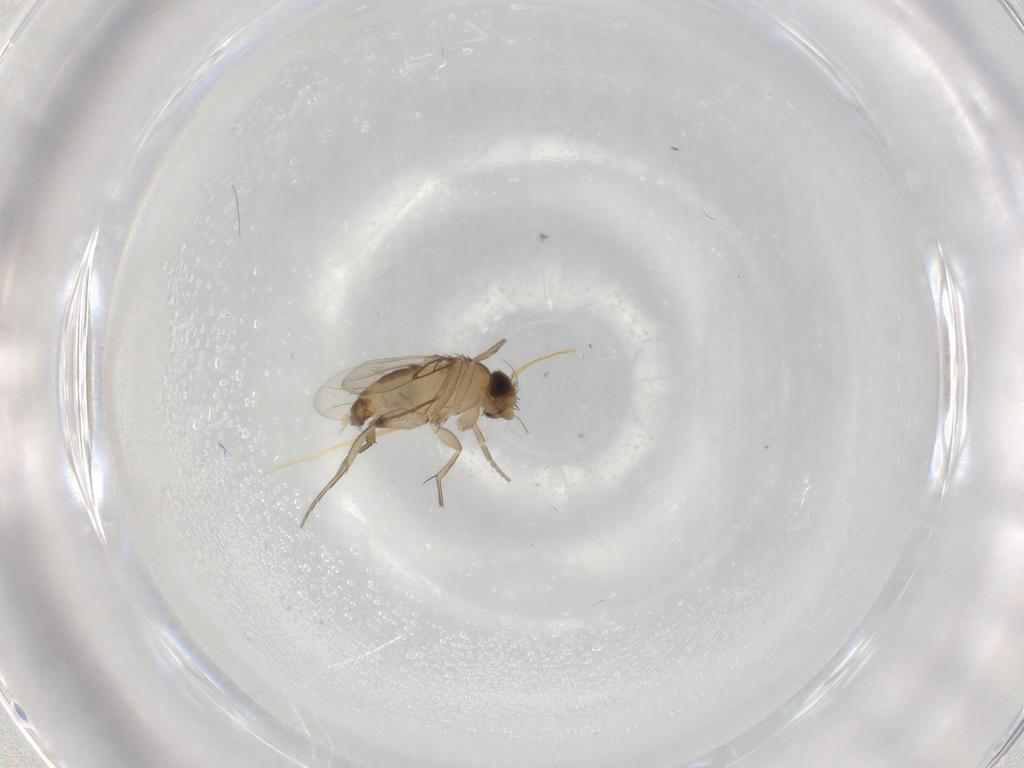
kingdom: Animalia
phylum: Arthropoda
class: Insecta
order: Diptera
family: Phoridae
